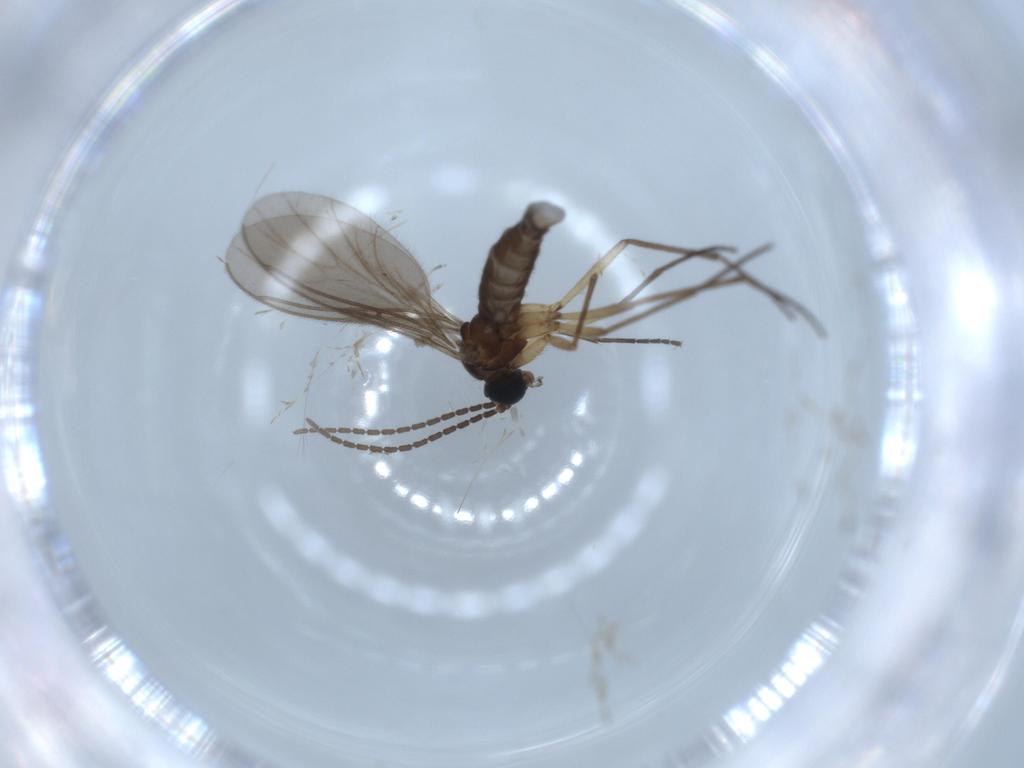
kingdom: Animalia
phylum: Arthropoda
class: Insecta
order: Diptera
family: Sciaridae
